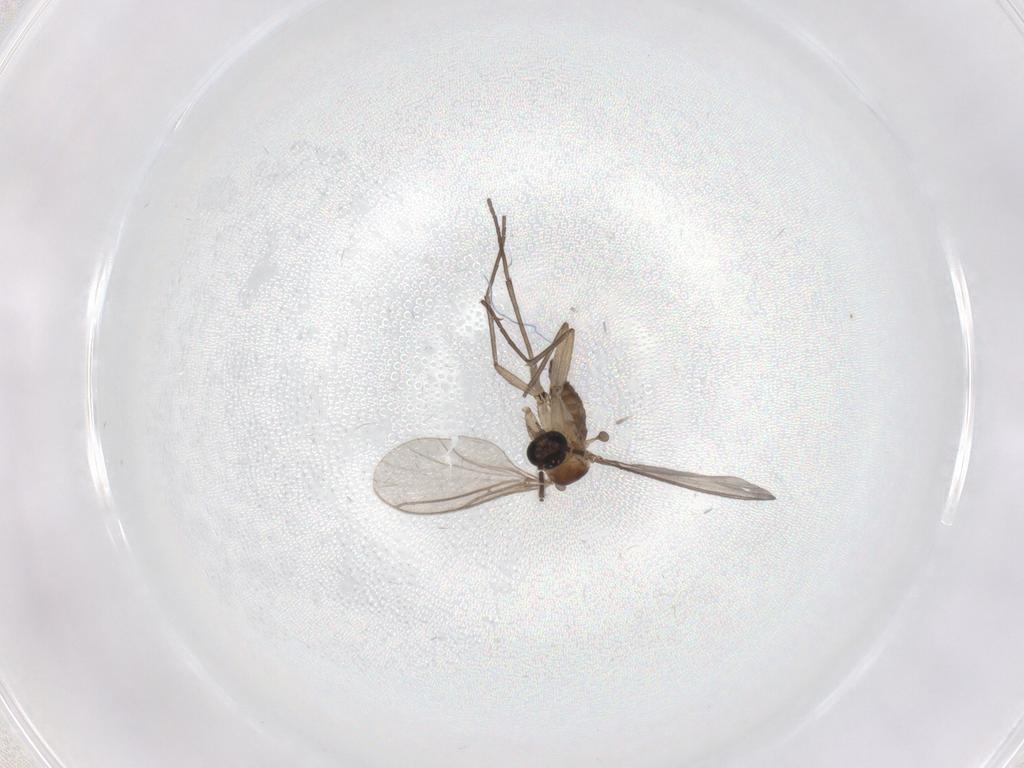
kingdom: Animalia
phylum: Arthropoda
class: Insecta
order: Diptera
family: Sciaridae
